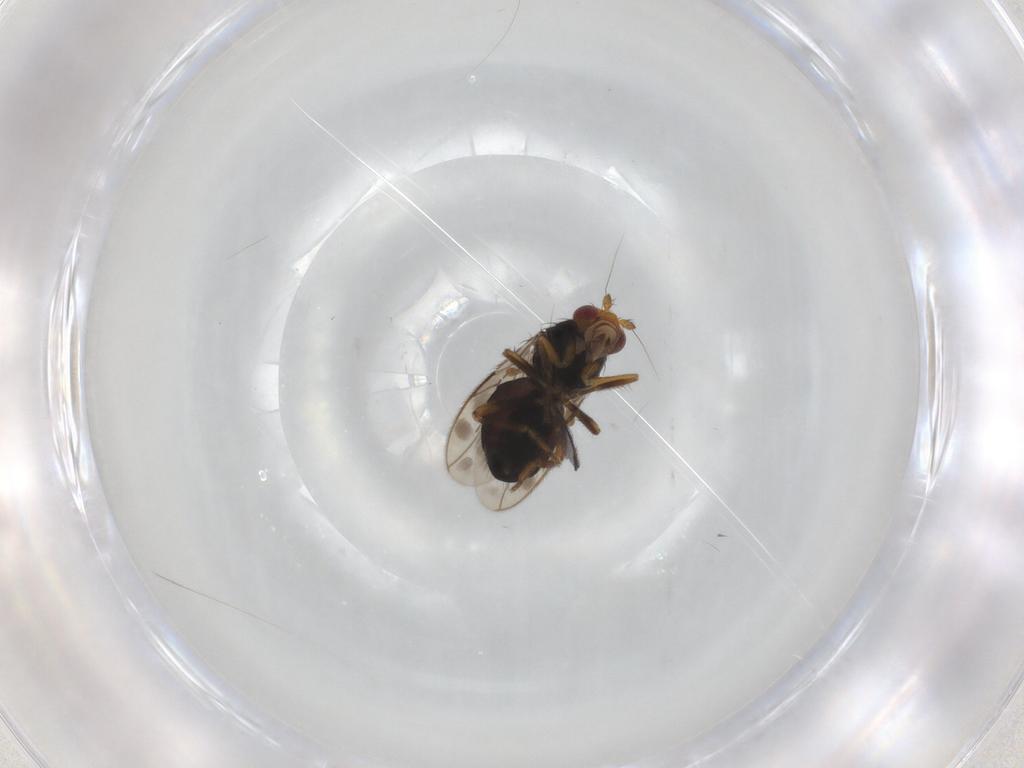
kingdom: Animalia
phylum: Arthropoda
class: Insecta
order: Diptera
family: Sphaeroceridae
